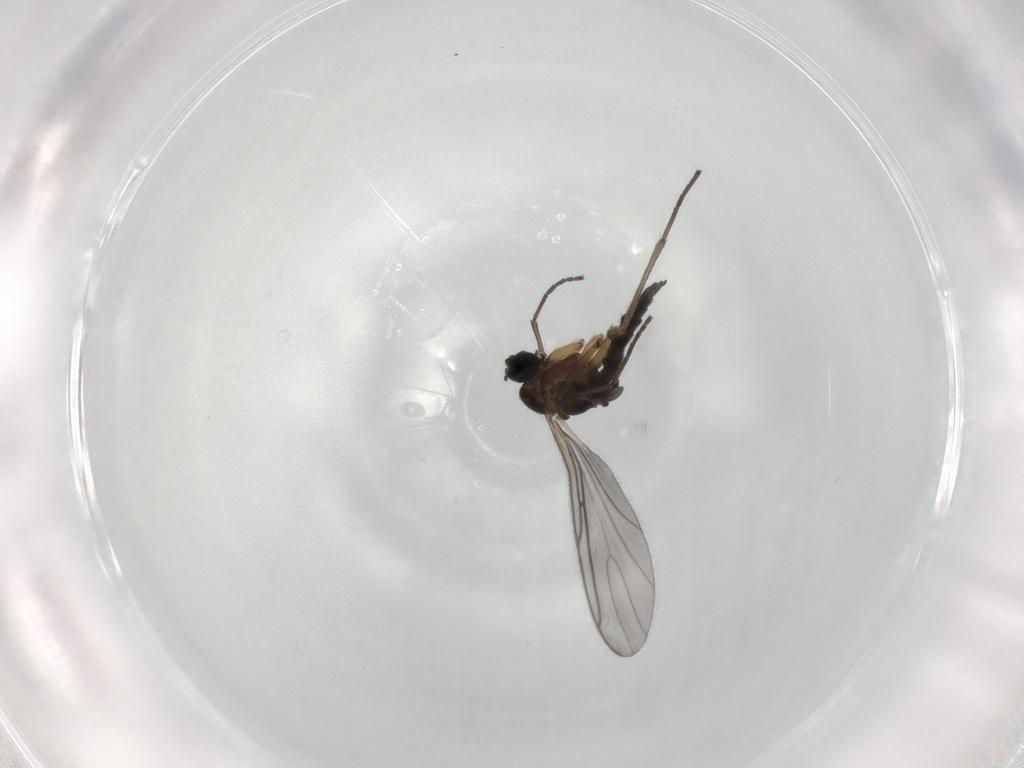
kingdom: Animalia
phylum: Arthropoda
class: Insecta
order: Diptera
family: Sciaridae
